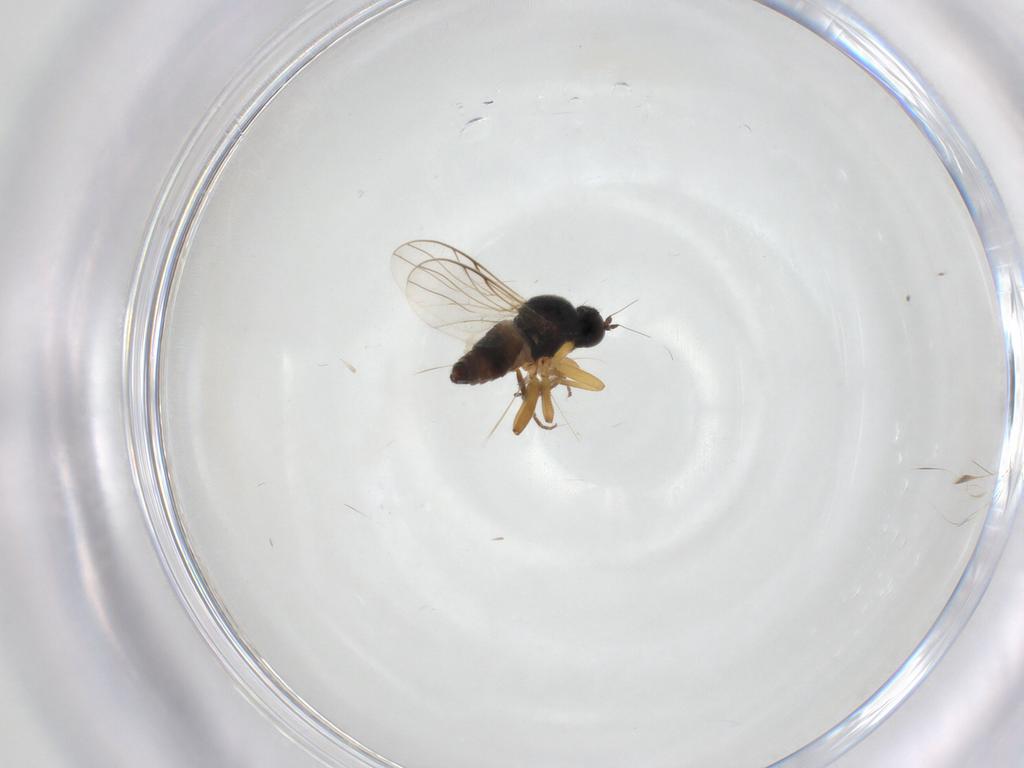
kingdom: Animalia
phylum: Arthropoda
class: Insecta
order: Diptera
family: Hybotidae
